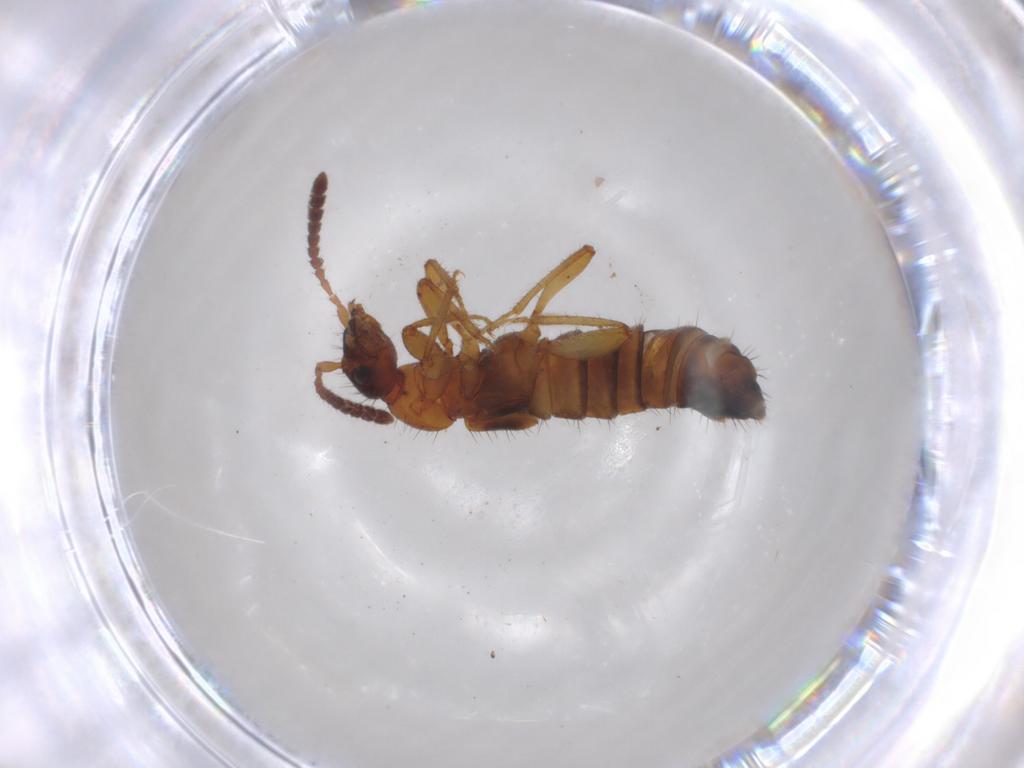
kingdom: Animalia
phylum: Arthropoda
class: Insecta
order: Coleoptera
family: Staphylinidae
